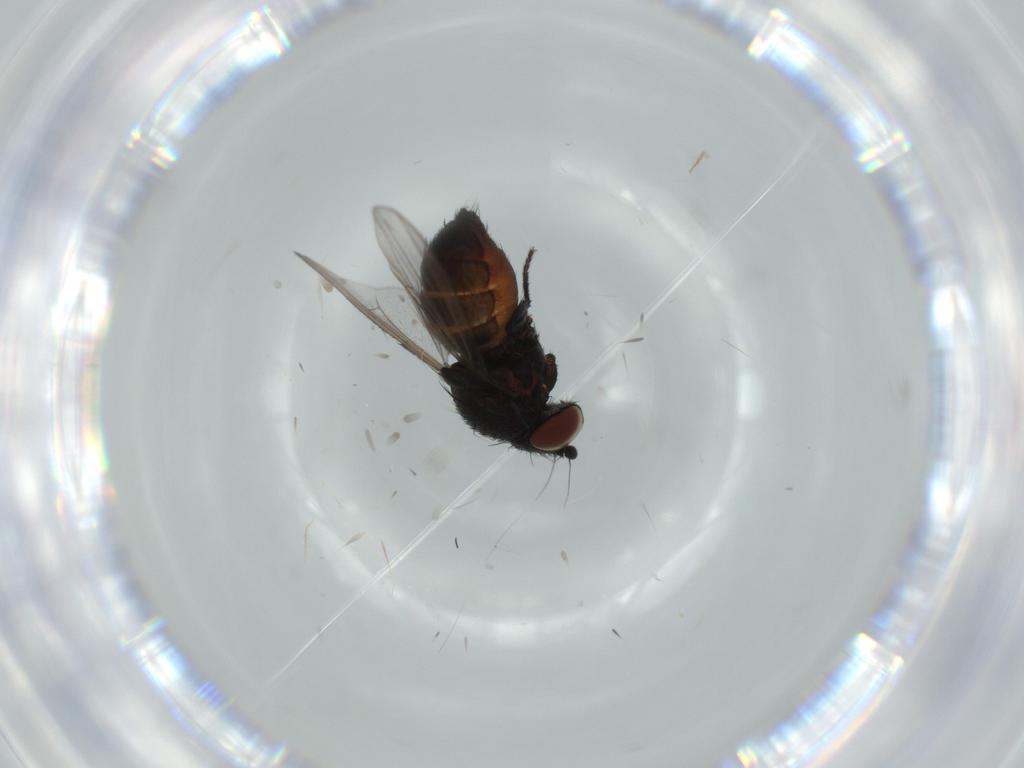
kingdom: Animalia
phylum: Arthropoda
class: Insecta
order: Diptera
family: Milichiidae
